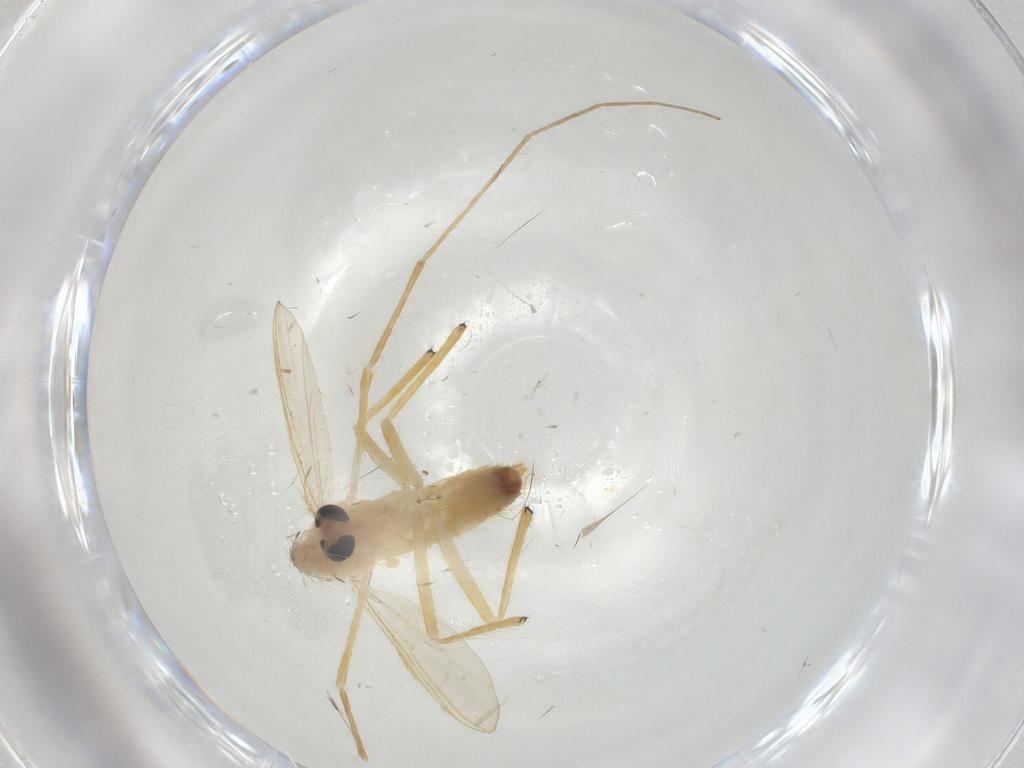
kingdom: Animalia
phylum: Arthropoda
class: Insecta
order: Diptera
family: Chironomidae
